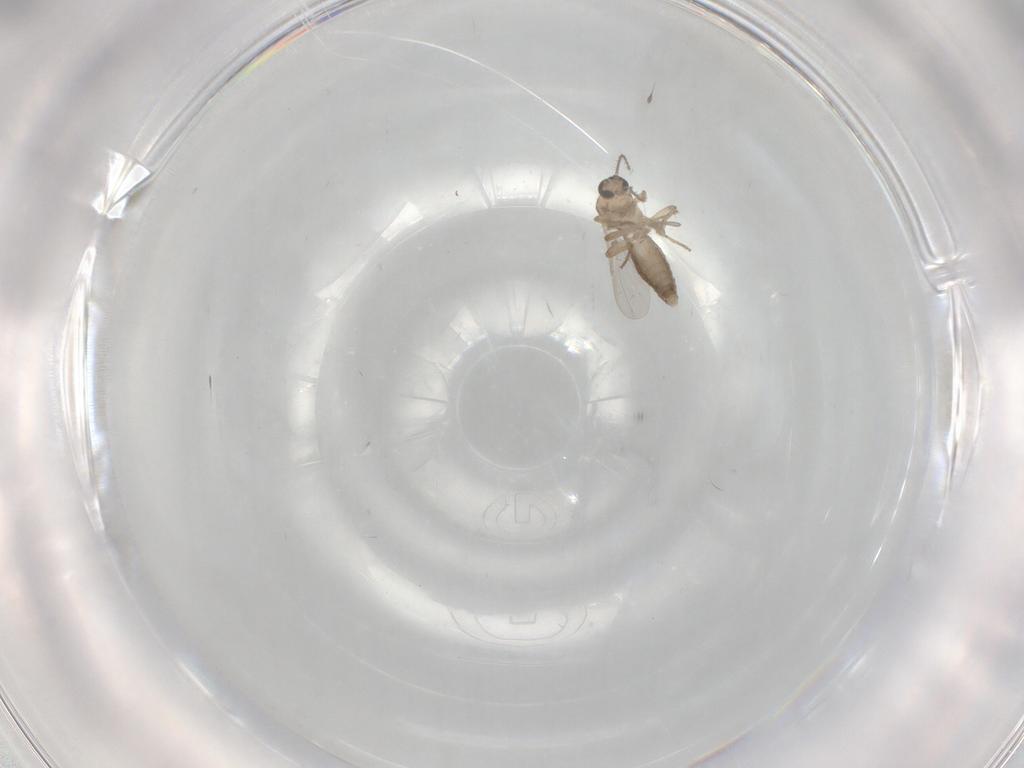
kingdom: Animalia
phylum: Arthropoda
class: Insecta
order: Diptera
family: Ceratopogonidae
